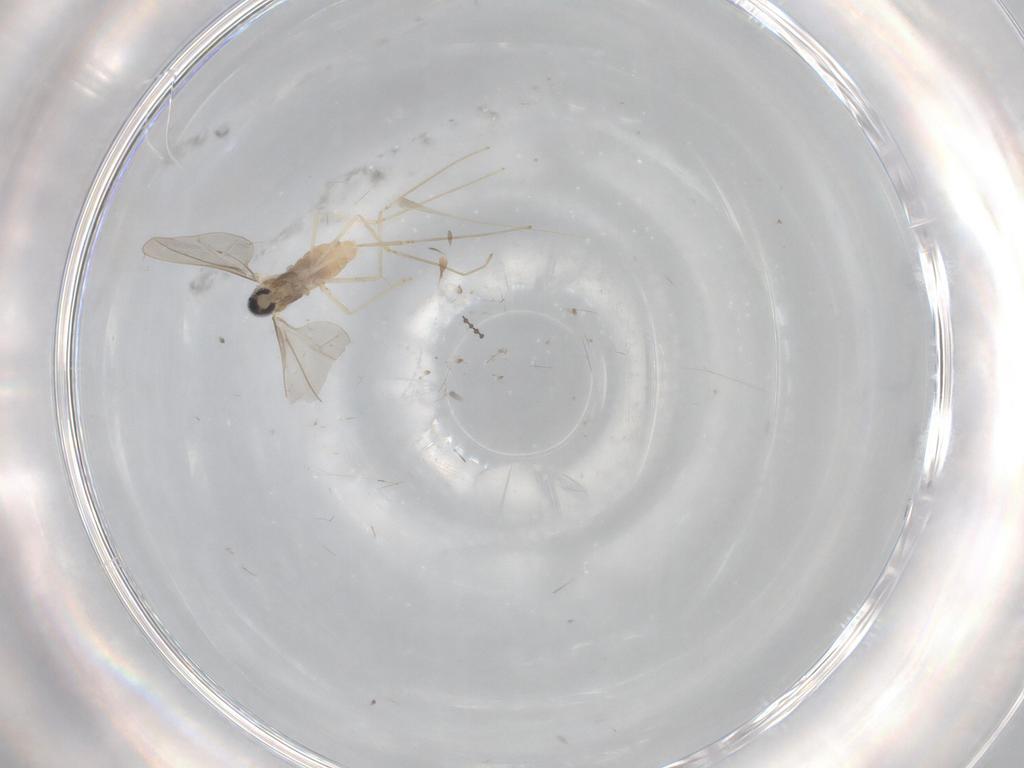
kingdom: Animalia
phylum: Arthropoda
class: Insecta
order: Diptera
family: Cecidomyiidae
